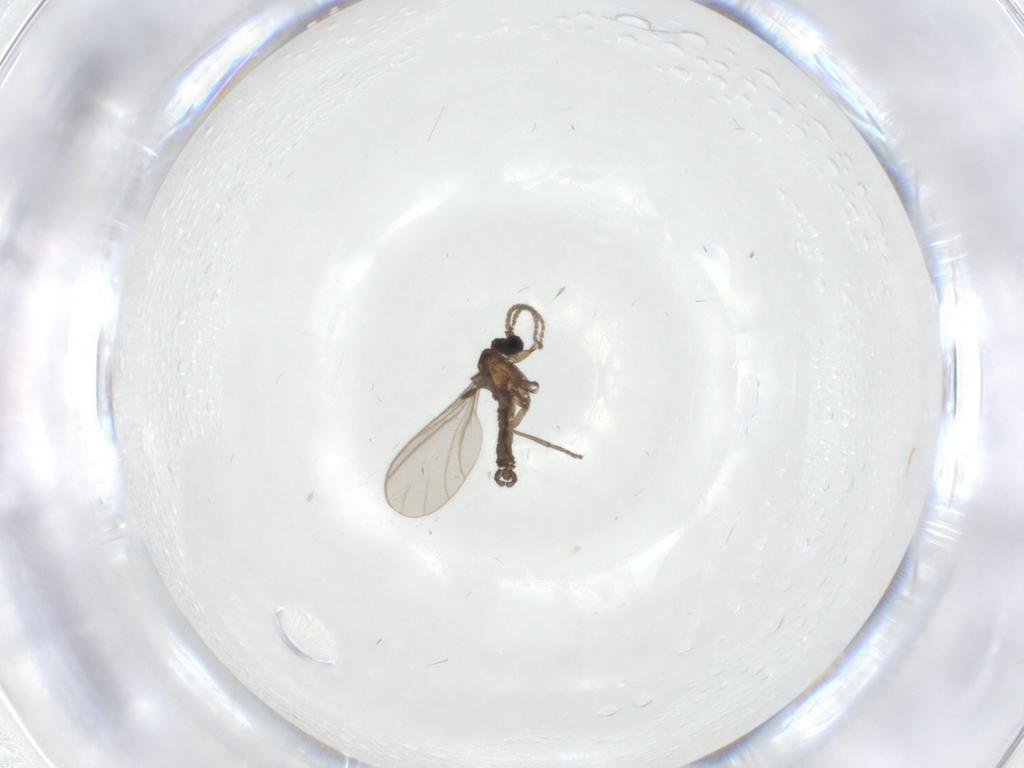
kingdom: Animalia
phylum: Arthropoda
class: Insecta
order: Diptera
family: Sciaridae
